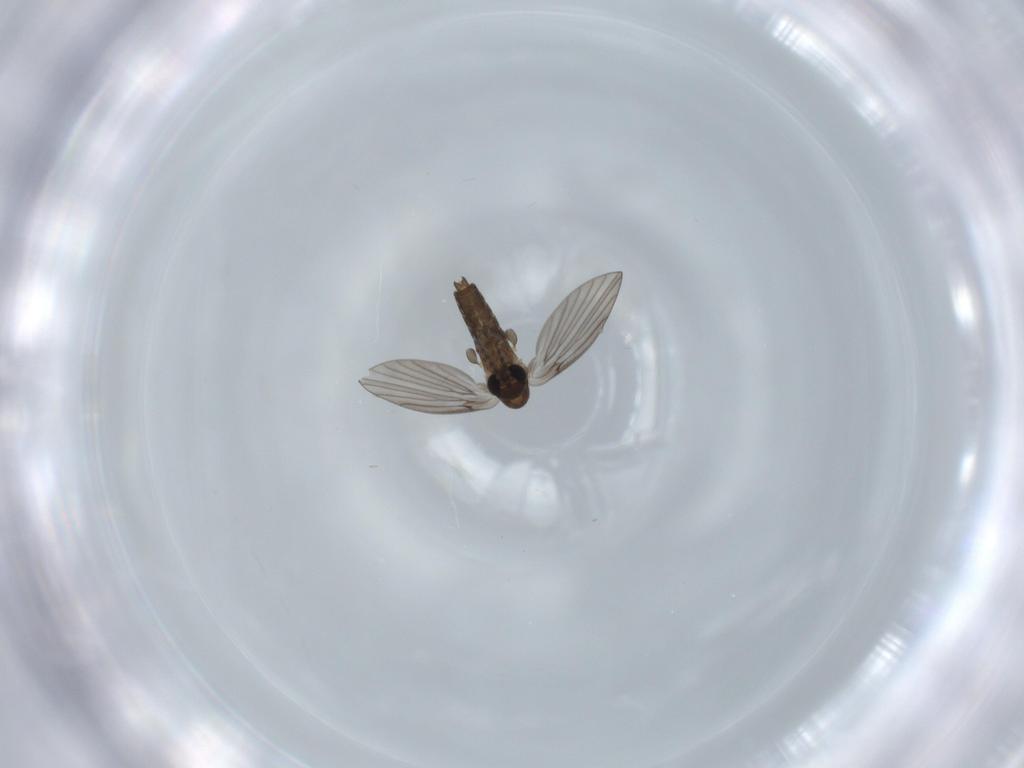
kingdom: Animalia
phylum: Arthropoda
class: Insecta
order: Diptera
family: Psychodidae
